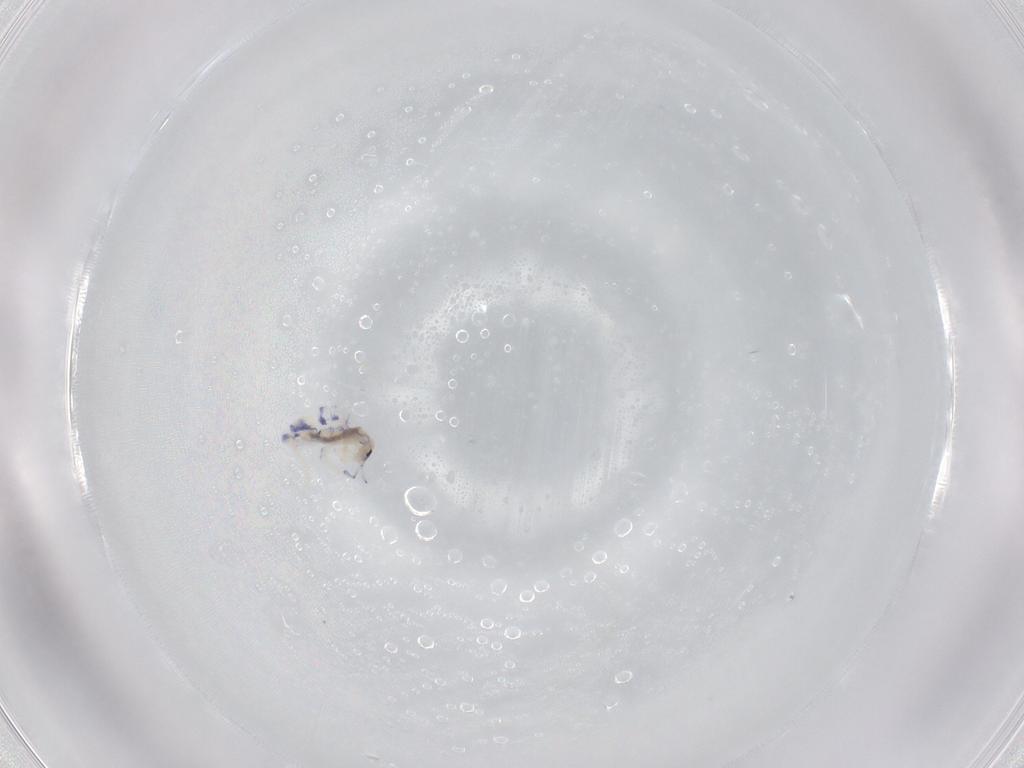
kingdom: Animalia
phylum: Arthropoda
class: Collembola
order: Entomobryomorpha
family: Entomobryidae
